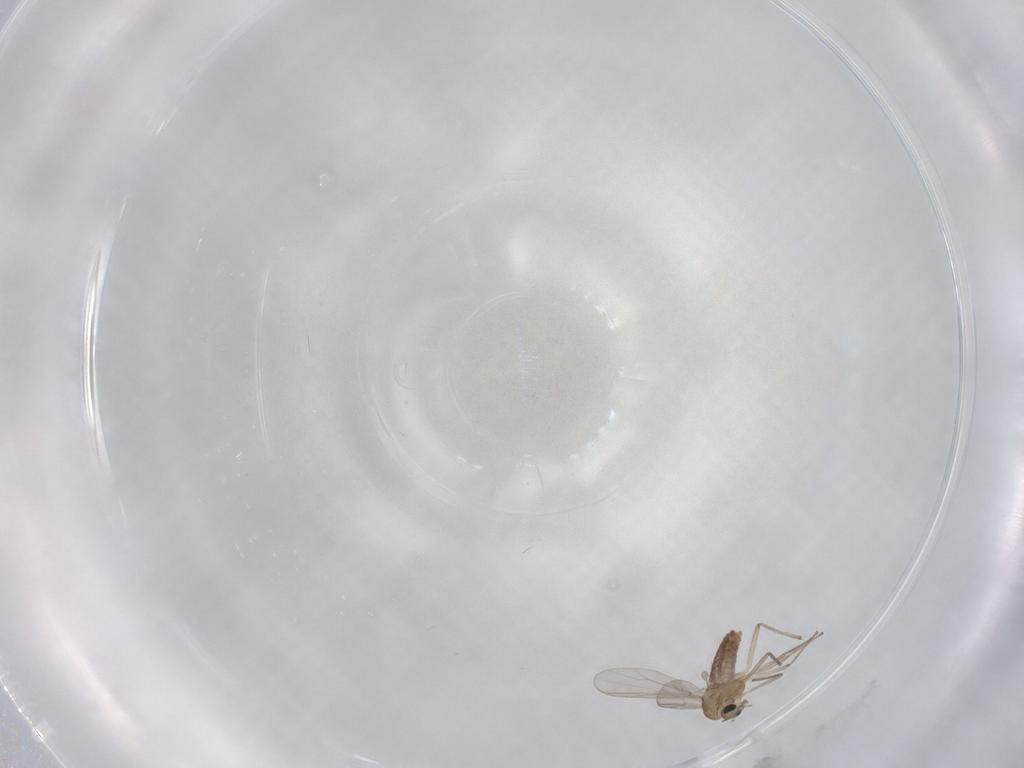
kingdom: Animalia
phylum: Arthropoda
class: Insecta
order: Diptera
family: Chironomidae
